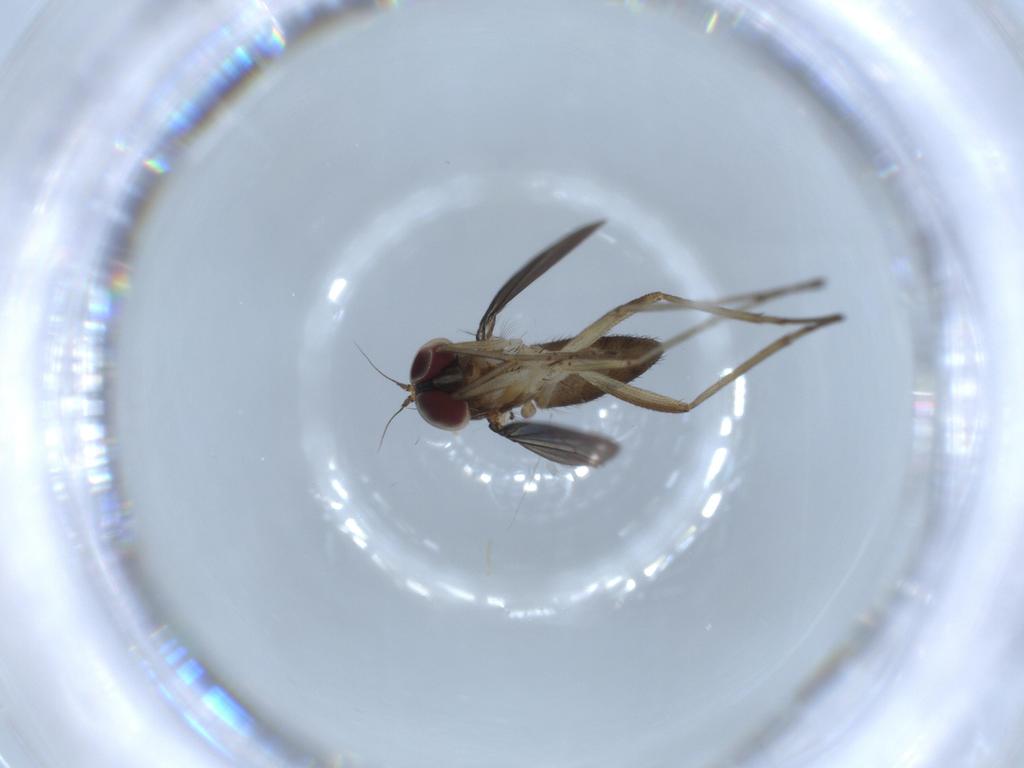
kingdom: Animalia
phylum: Arthropoda
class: Insecta
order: Diptera
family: Dolichopodidae
